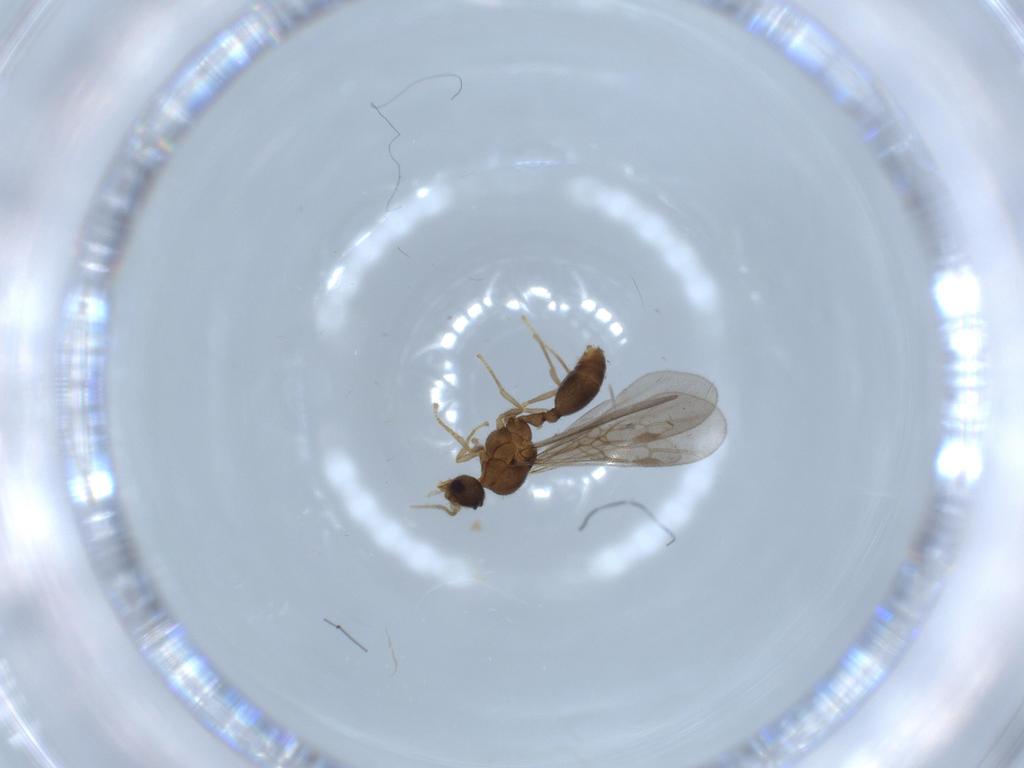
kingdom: Animalia
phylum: Arthropoda
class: Insecta
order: Hymenoptera
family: Formicidae
